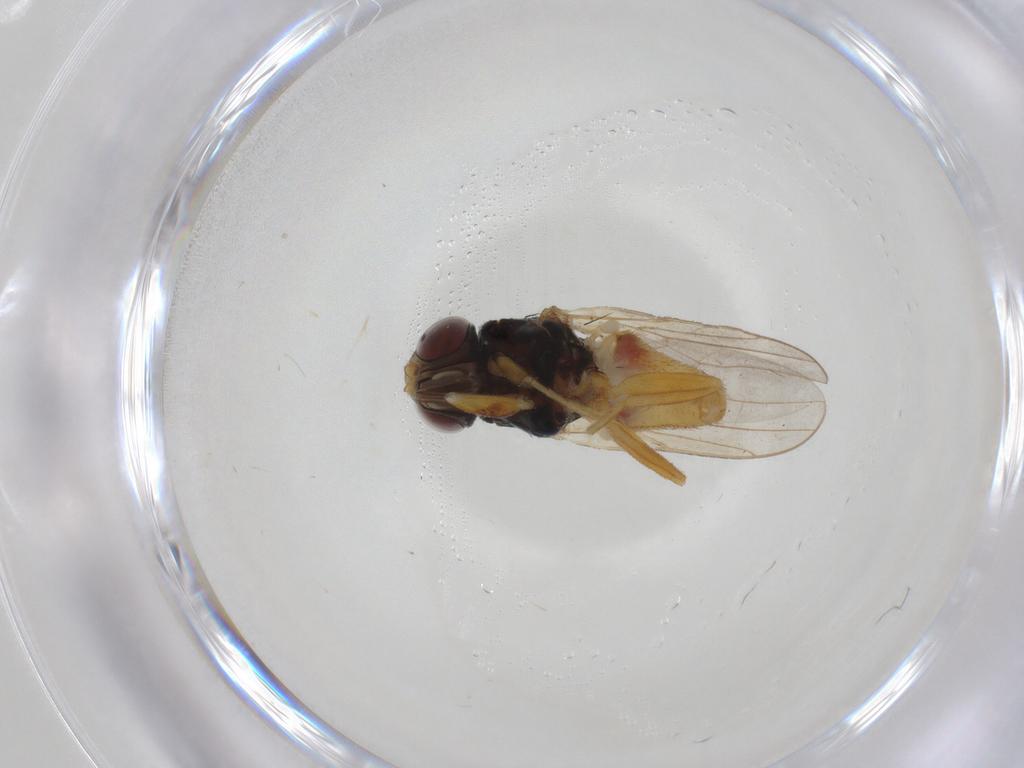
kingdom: Animalia
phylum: Arthropoda
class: Insecta
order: Diptera
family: Chloropidae
